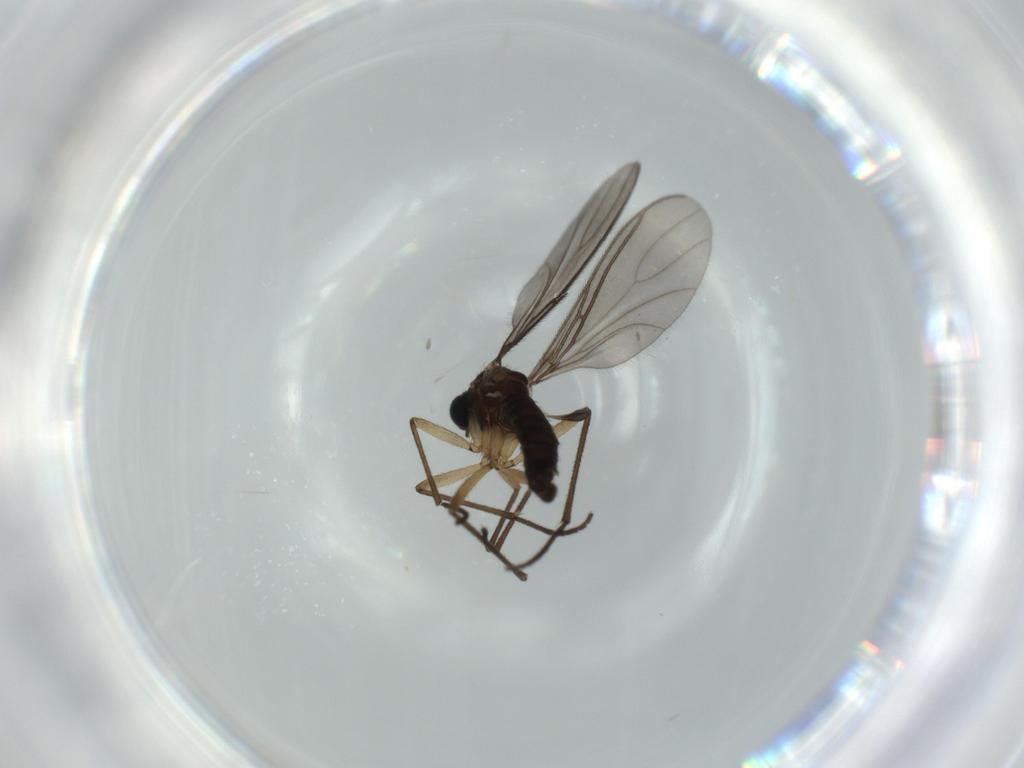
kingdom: Animalia
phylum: Arthropoda
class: Insecta
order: Diptera
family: Sciaridae
